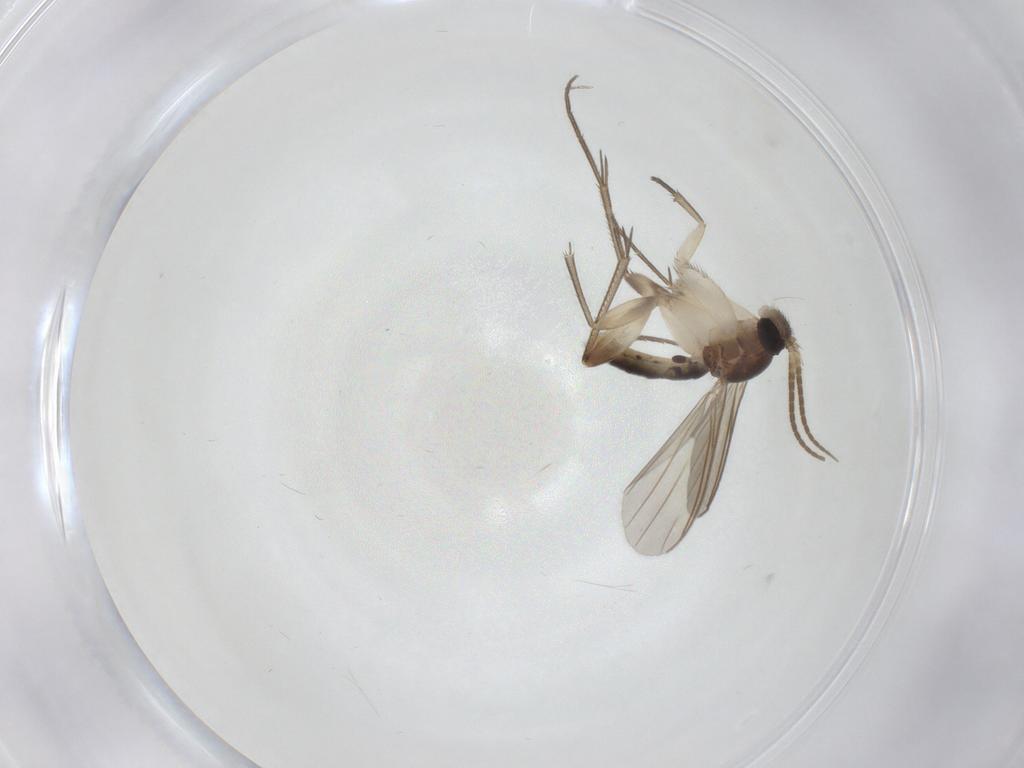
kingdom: Animalia
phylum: Arthropoda
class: Insecta
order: Diptera
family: Mycetophilidae
